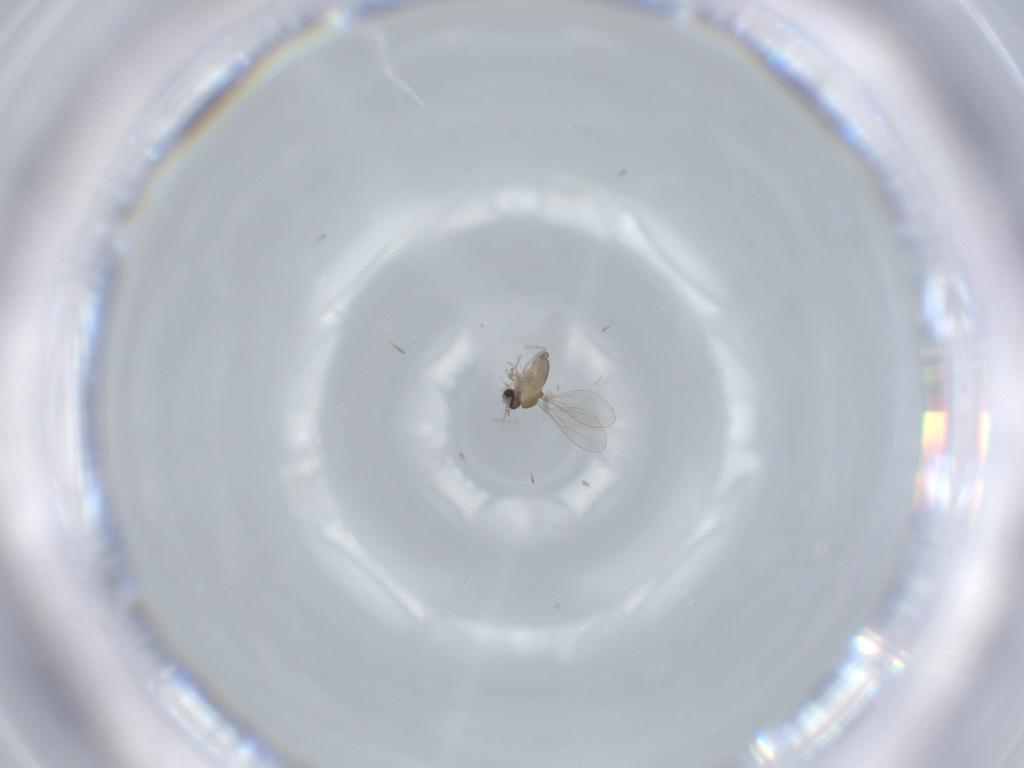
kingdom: Animalia
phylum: Arthropoda
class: Insecta
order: Diptera
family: Cecidomyiidae
